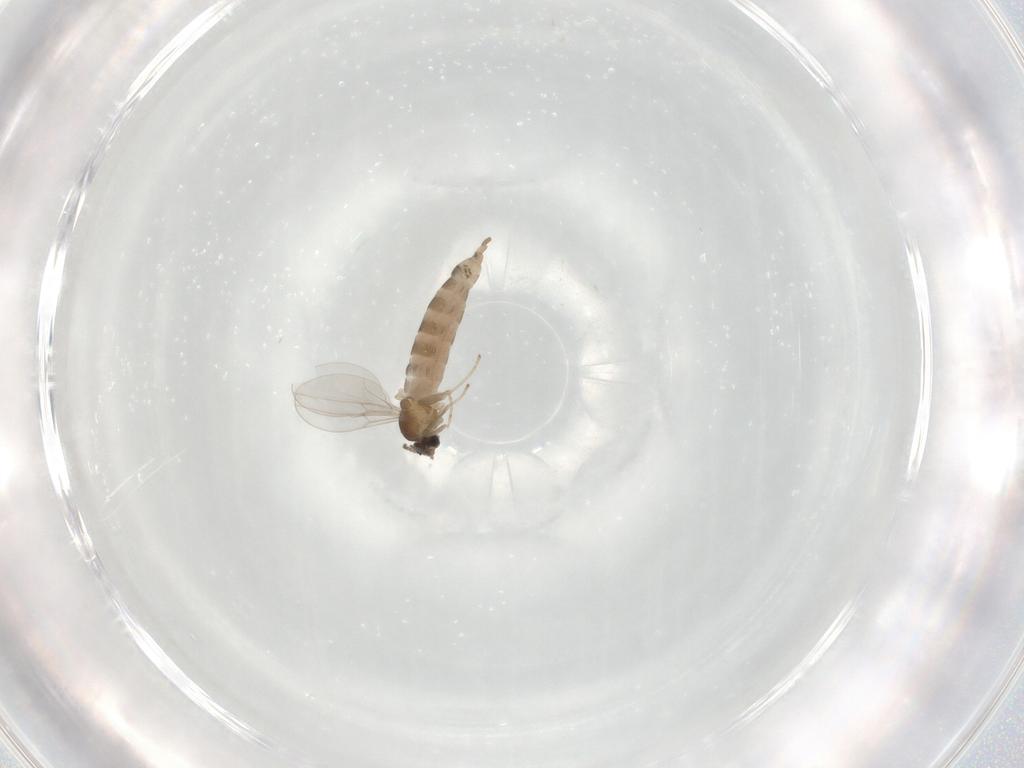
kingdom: Animalia
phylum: Arthropoda
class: Insecta
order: Diptera
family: Cecidomyiidae
